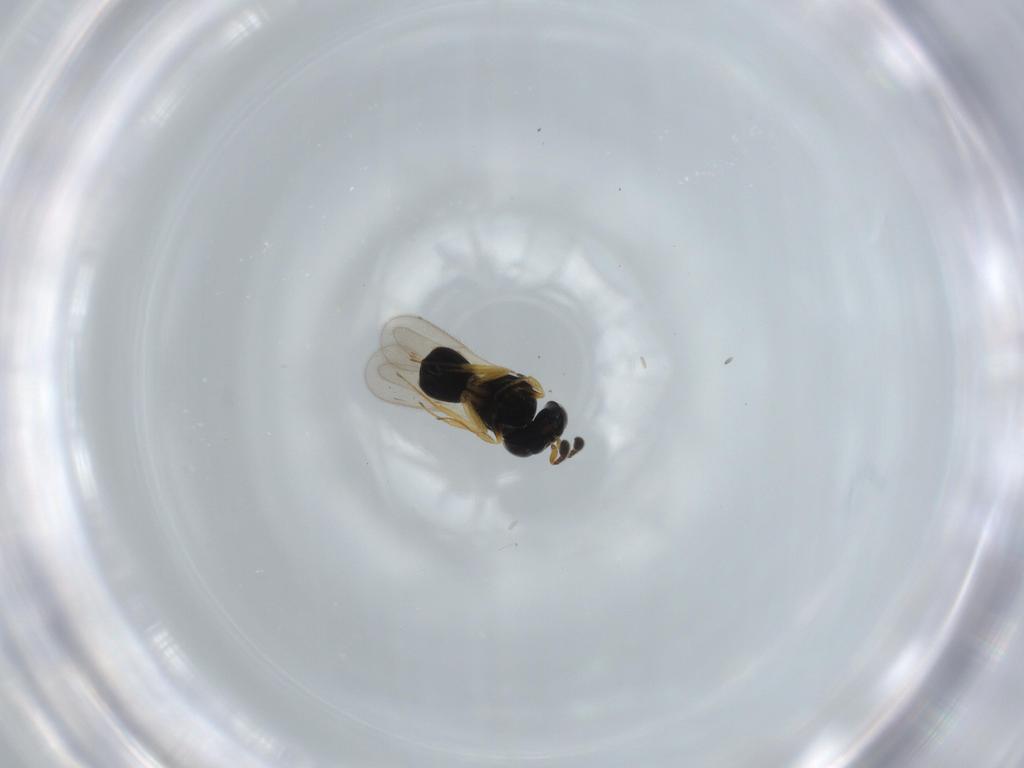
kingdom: Animalia
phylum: Arthropoda
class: Insecta
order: Hymenoptera
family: Scelionidae
